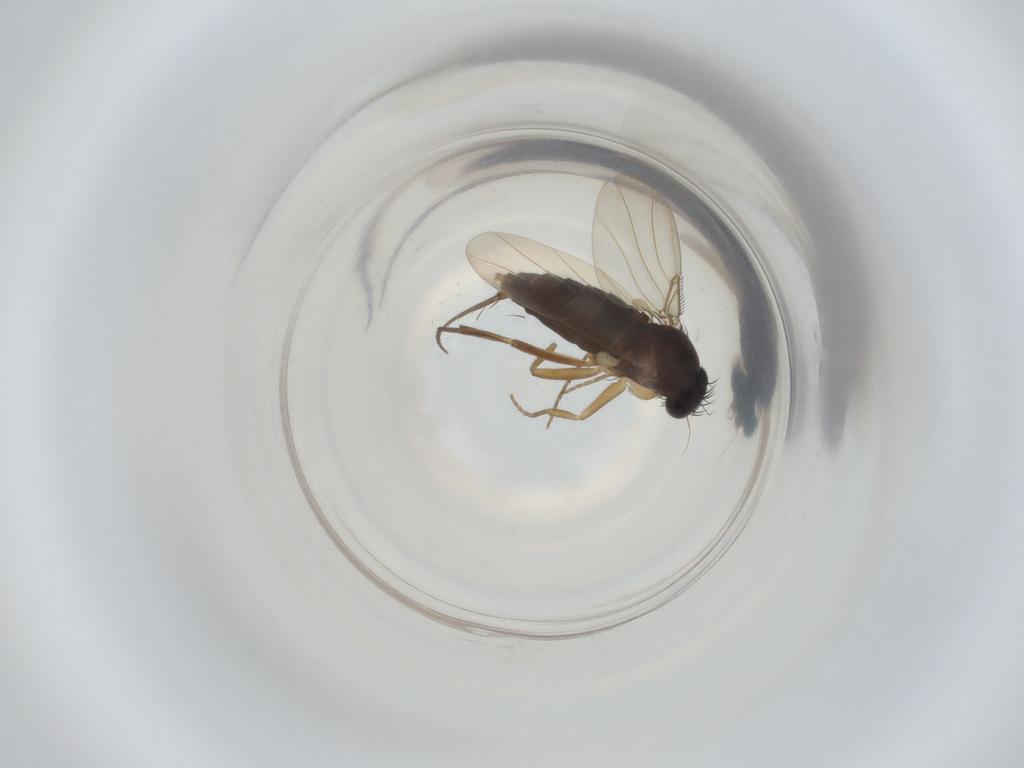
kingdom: Animalia
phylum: Arthropoda
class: Insecta
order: Diptera
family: Phoridae
